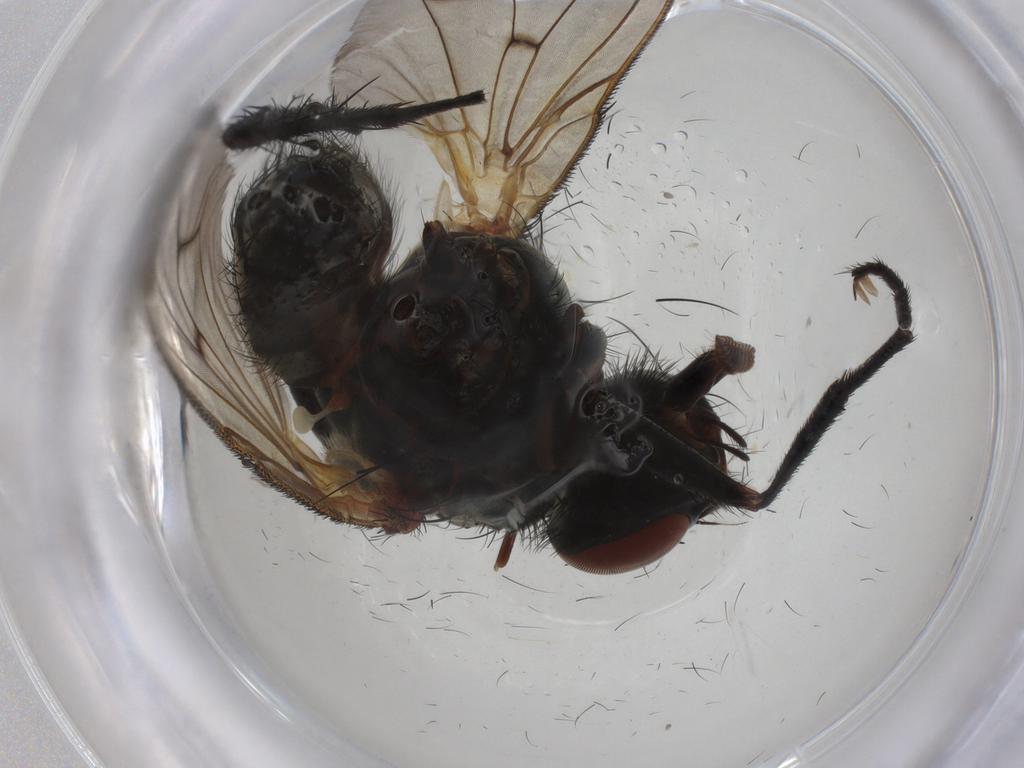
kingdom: Animalia
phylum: Arthropoda
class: Insecta
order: Diptera
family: Anthomyiidae
